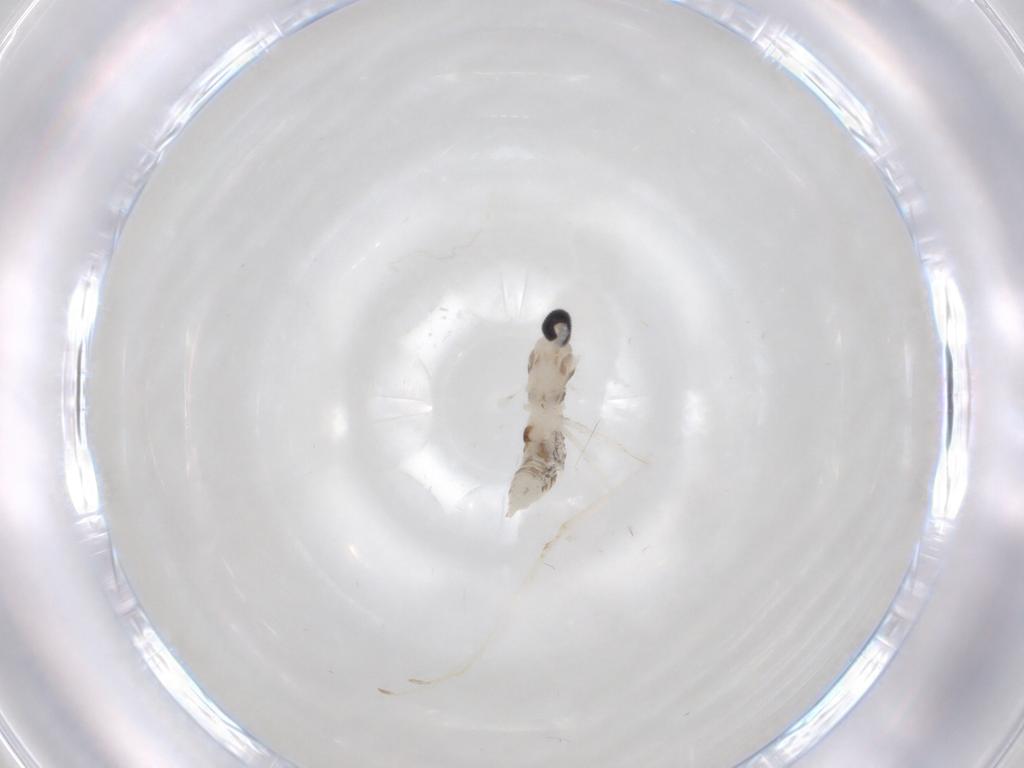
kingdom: Animalia
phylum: Arthropoda
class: Insecta
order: Diptera
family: Cecidomyiidae
